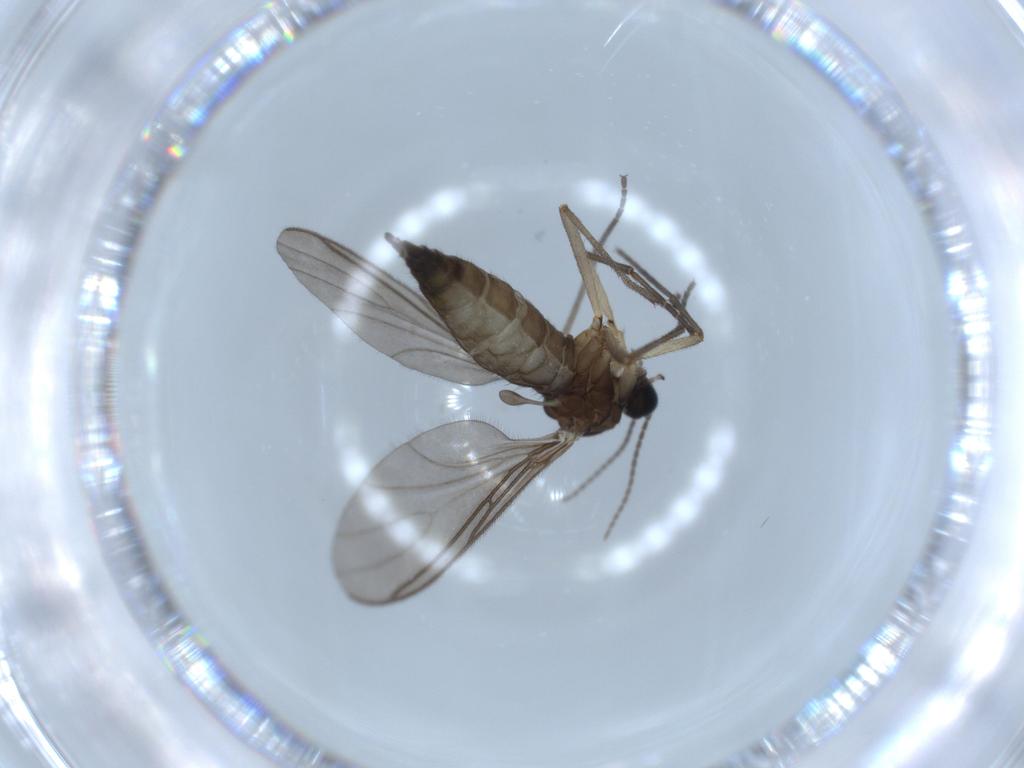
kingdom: Animalia
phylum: Arthropoda
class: Insecta
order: Diptera
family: Sciaridae
